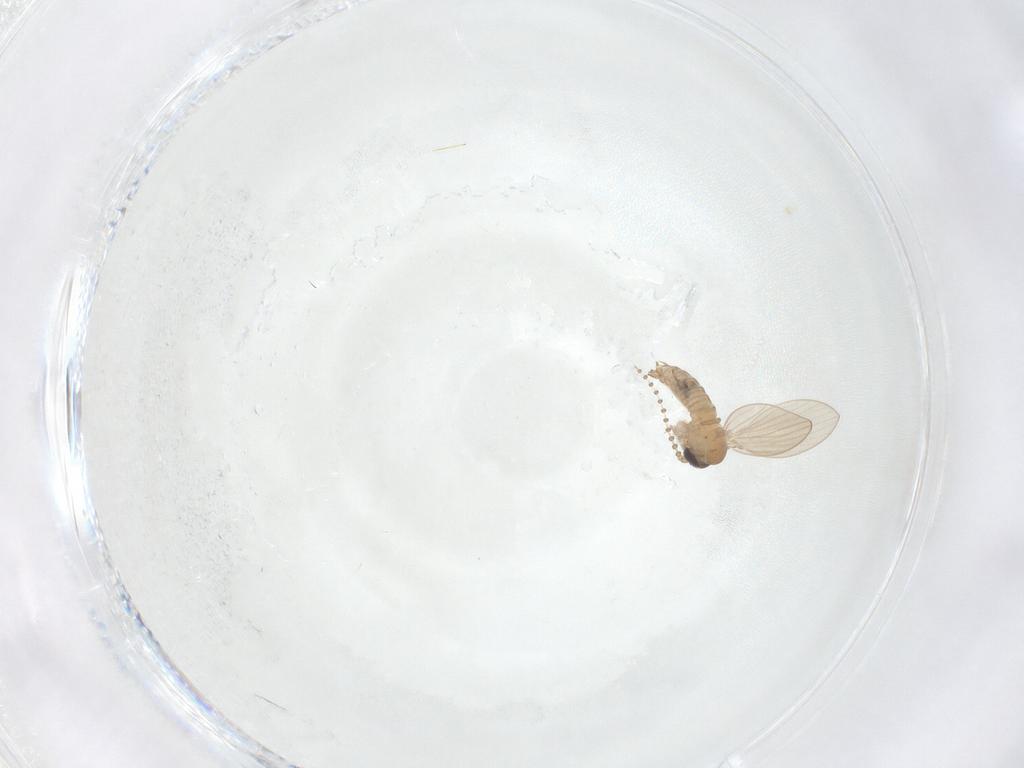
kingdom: Animalia
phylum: Arthropoda
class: Insecta
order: Diptera
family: Psychodidae
